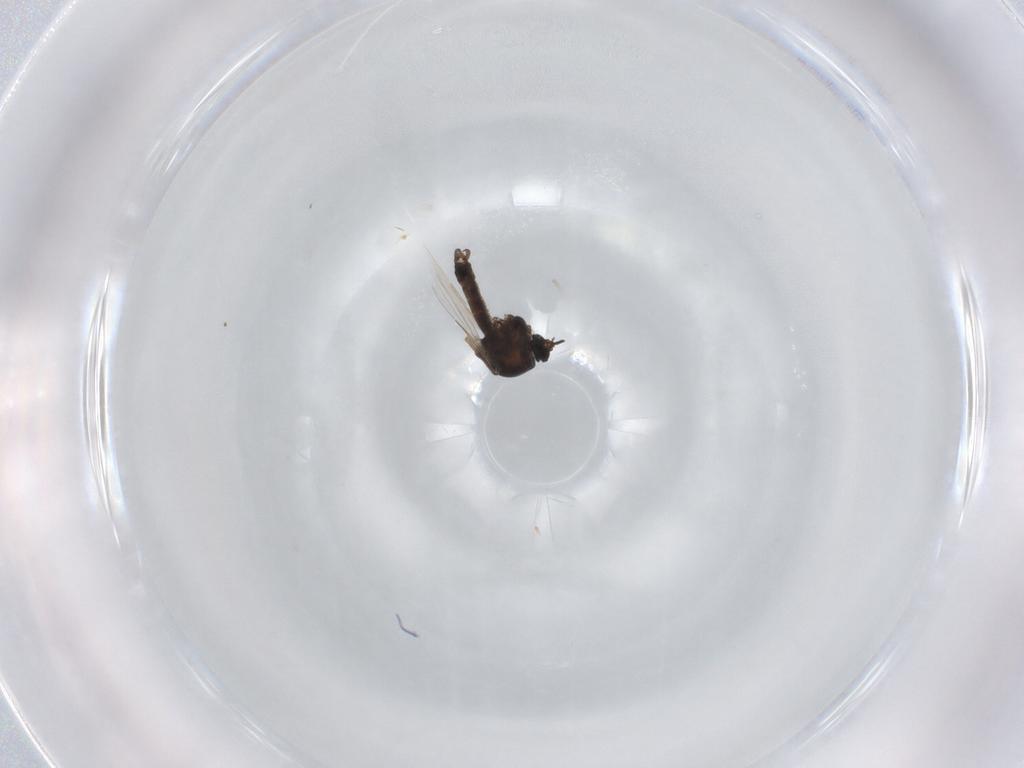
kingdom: Animalia
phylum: Arthropoda
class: Insecta
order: Diptera
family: Ceratopogonidae
